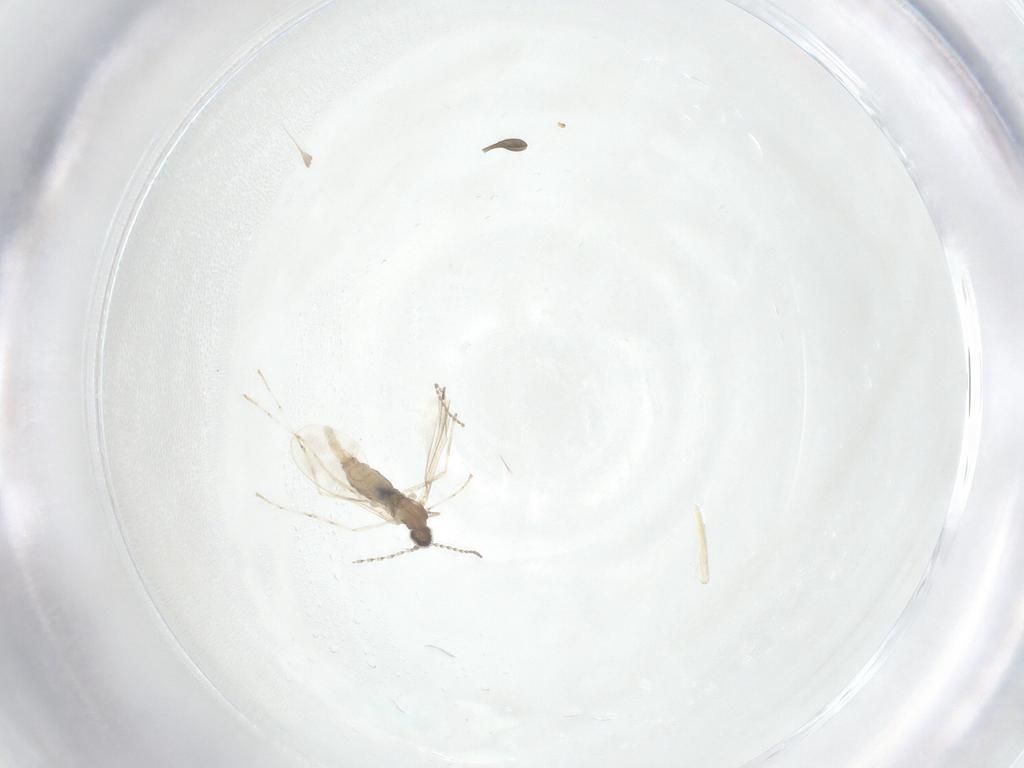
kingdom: Animalia
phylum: Arthropoda
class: Insecta
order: Diptera
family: Cecidomyiidae
